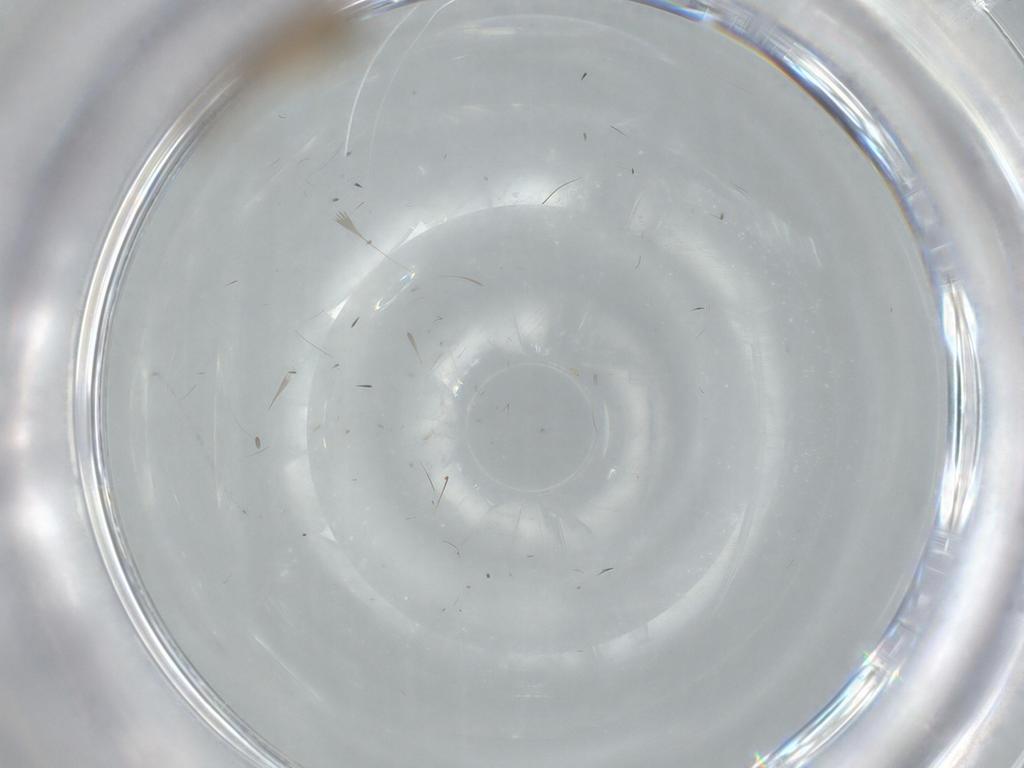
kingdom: Animalia
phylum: Arthropoda
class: Insecta
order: Diptera
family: Chironomidae
